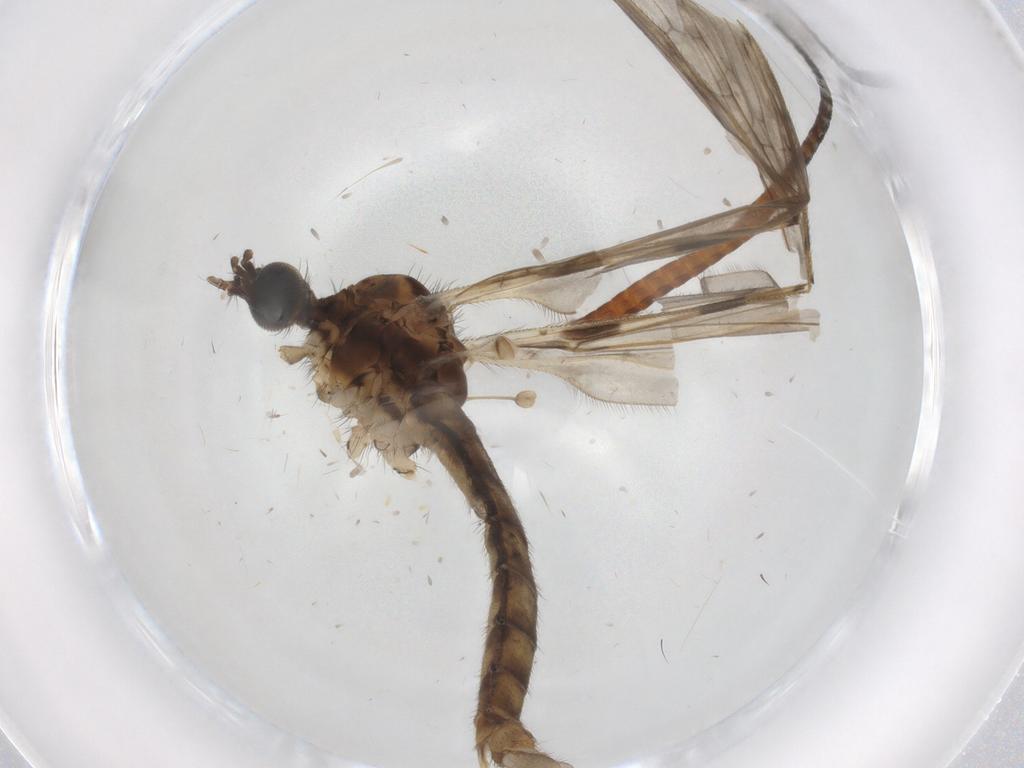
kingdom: Animalia
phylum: Arthropoda
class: Insecta
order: Diptera
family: Cecidomyiidae
